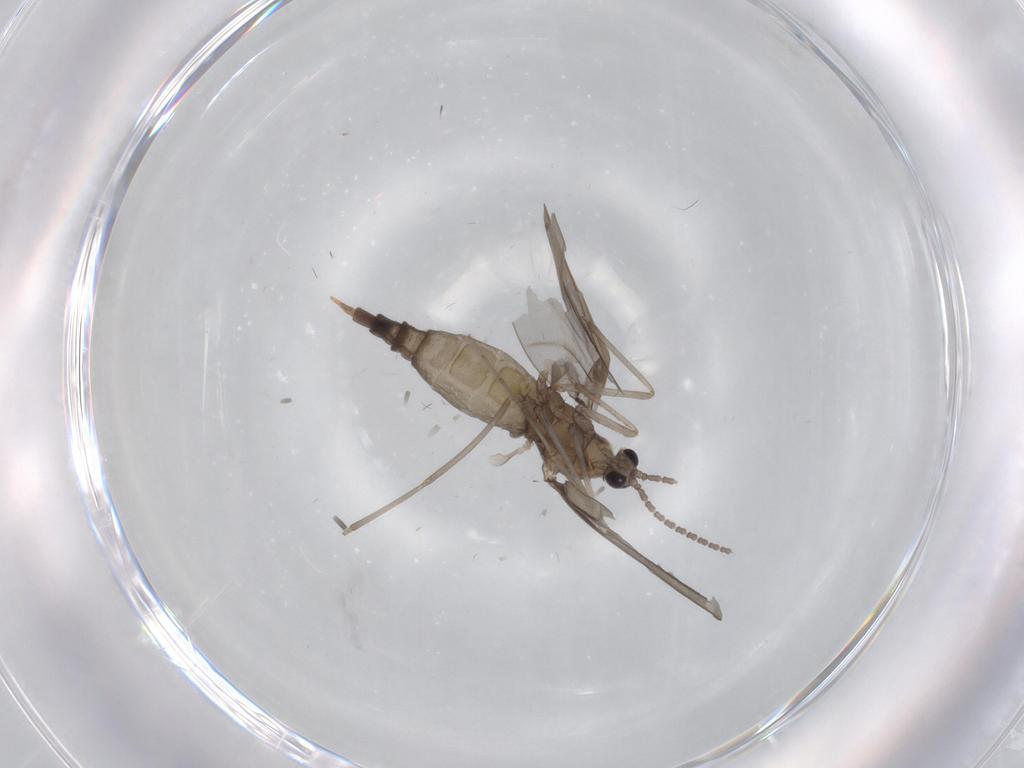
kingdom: Animalia
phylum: Arthropoda
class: Insecta
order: Diptera
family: Cecidomyiidae
